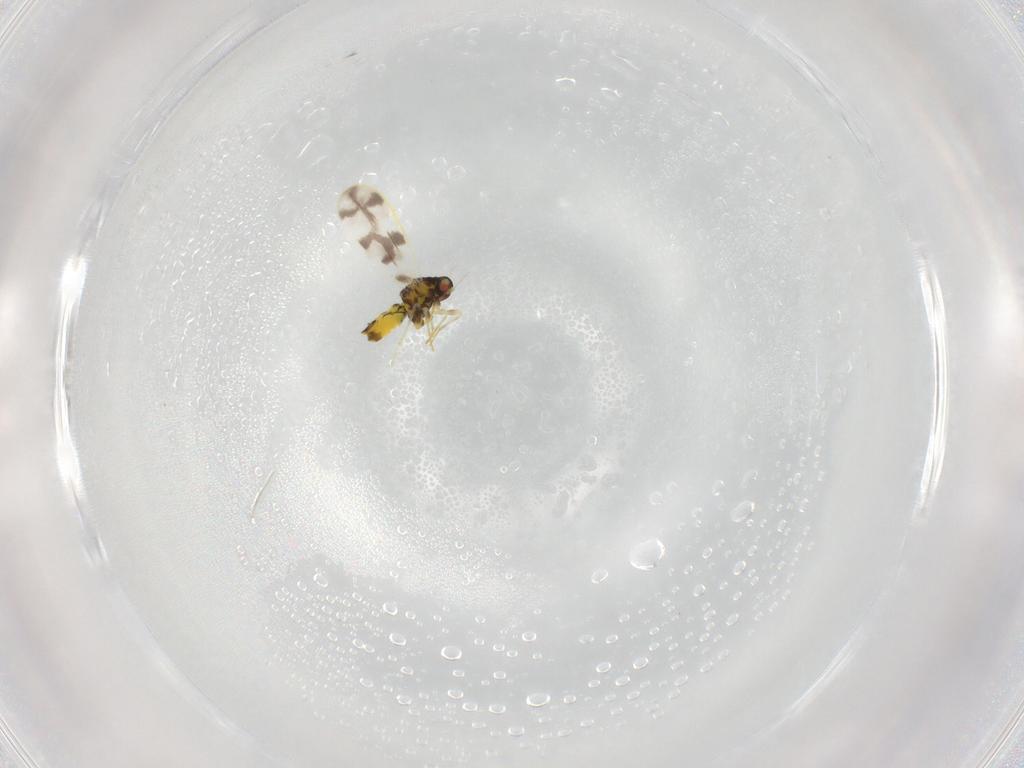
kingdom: Animalia
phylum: Arthropoda
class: Insecta
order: Hemiptera
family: Aleyrodidae
